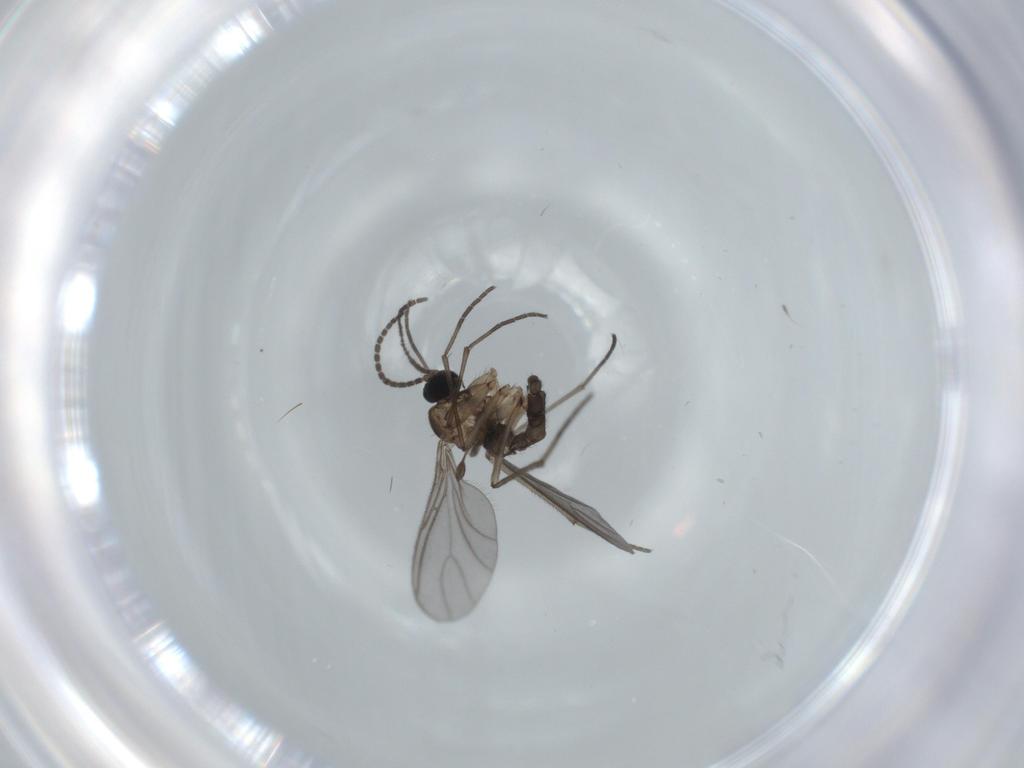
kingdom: Animalia
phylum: Arthropoda
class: Insecta
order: Diptera
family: Sciaridae
